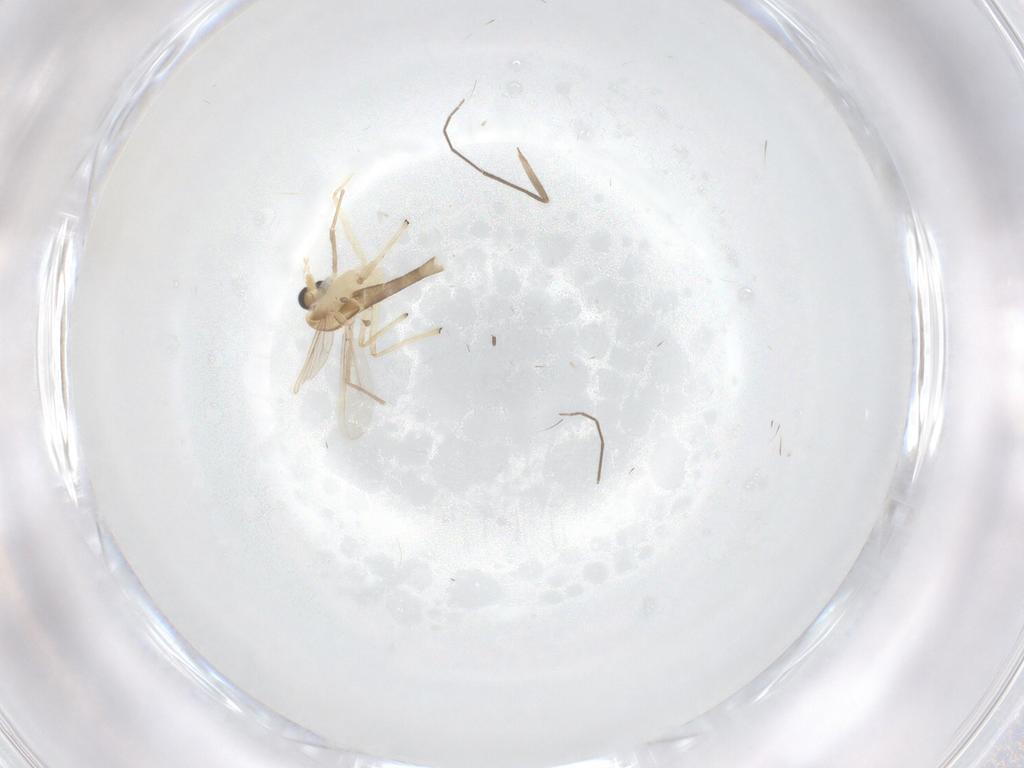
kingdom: Animalia
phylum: Arthropoda
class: Insecta
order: Diptera
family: Chironomidae
